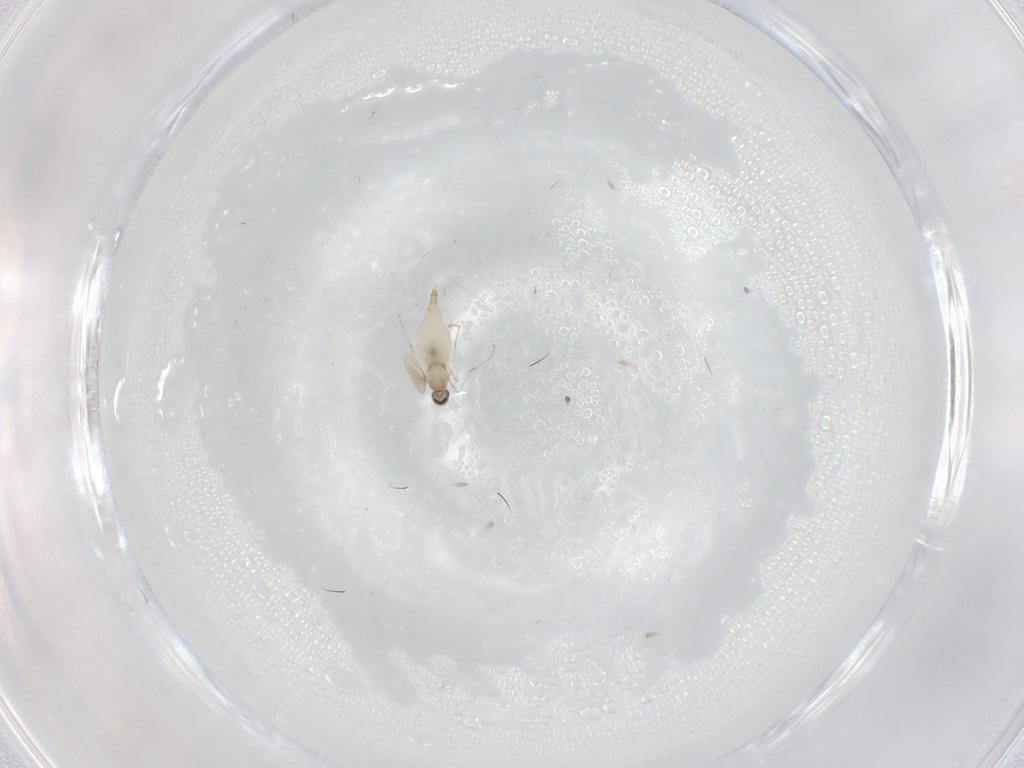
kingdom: Animalia
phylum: Arthropoda
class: Insecta
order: Diptera
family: Cecidomyiidae
